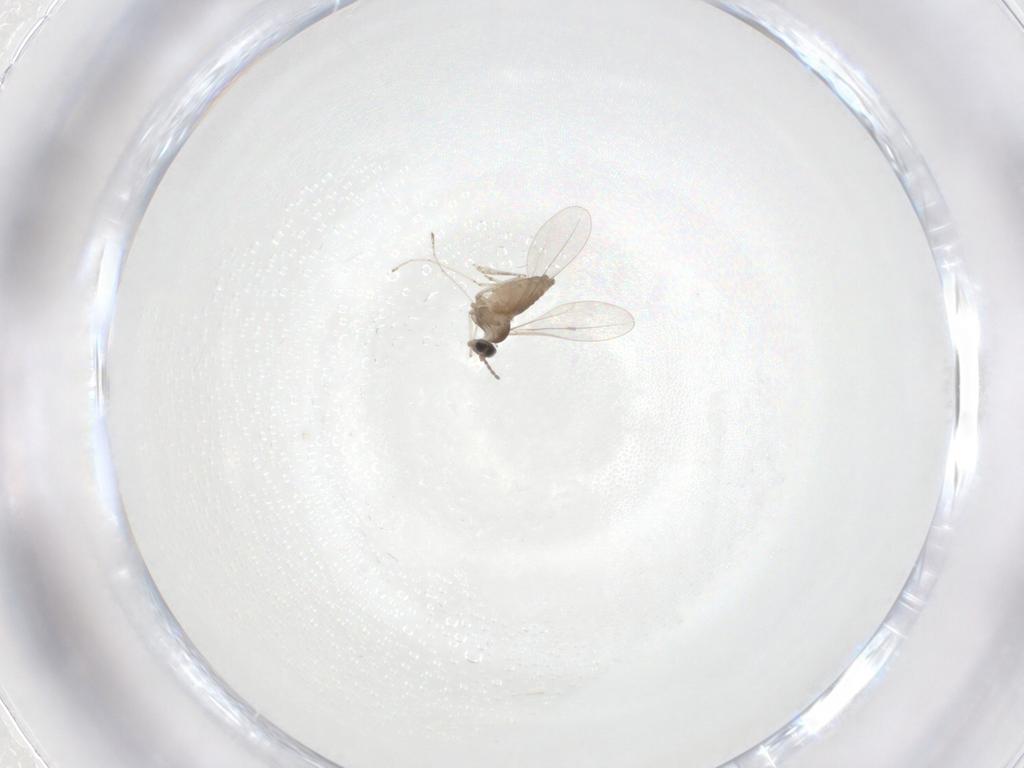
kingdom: Animalia
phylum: Arthropoda
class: Insecta
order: Diptera
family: Cecidomyiidae
